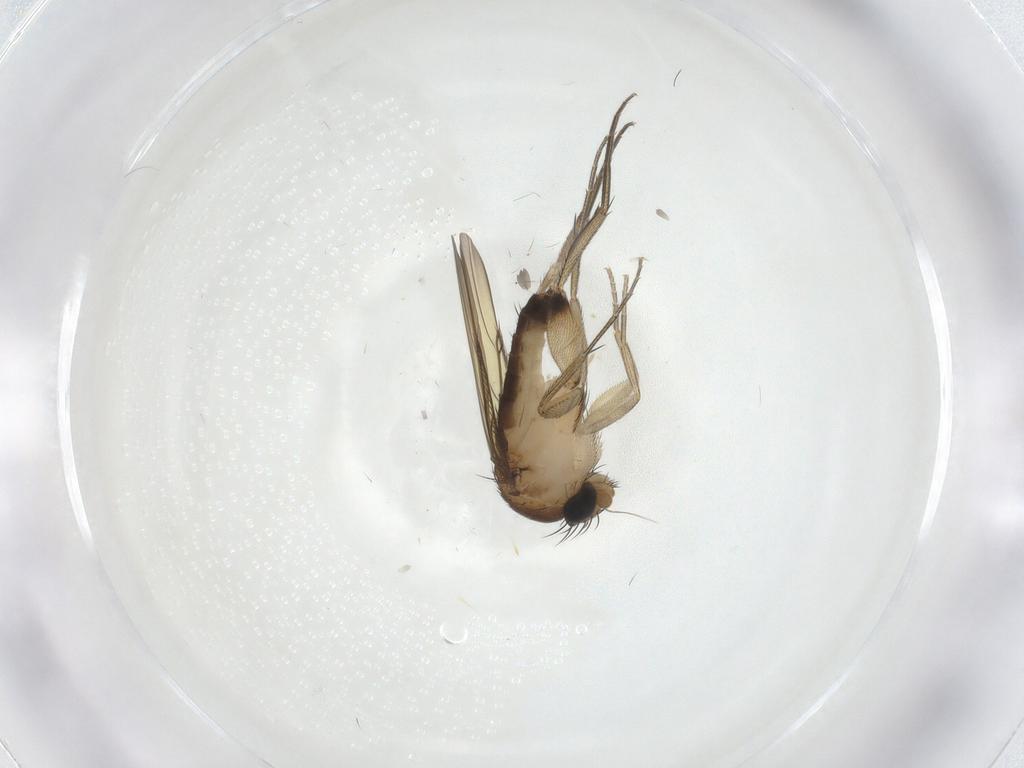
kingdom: Animalia
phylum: Arthropoda
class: Insecta
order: Diptera
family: Phoridae
